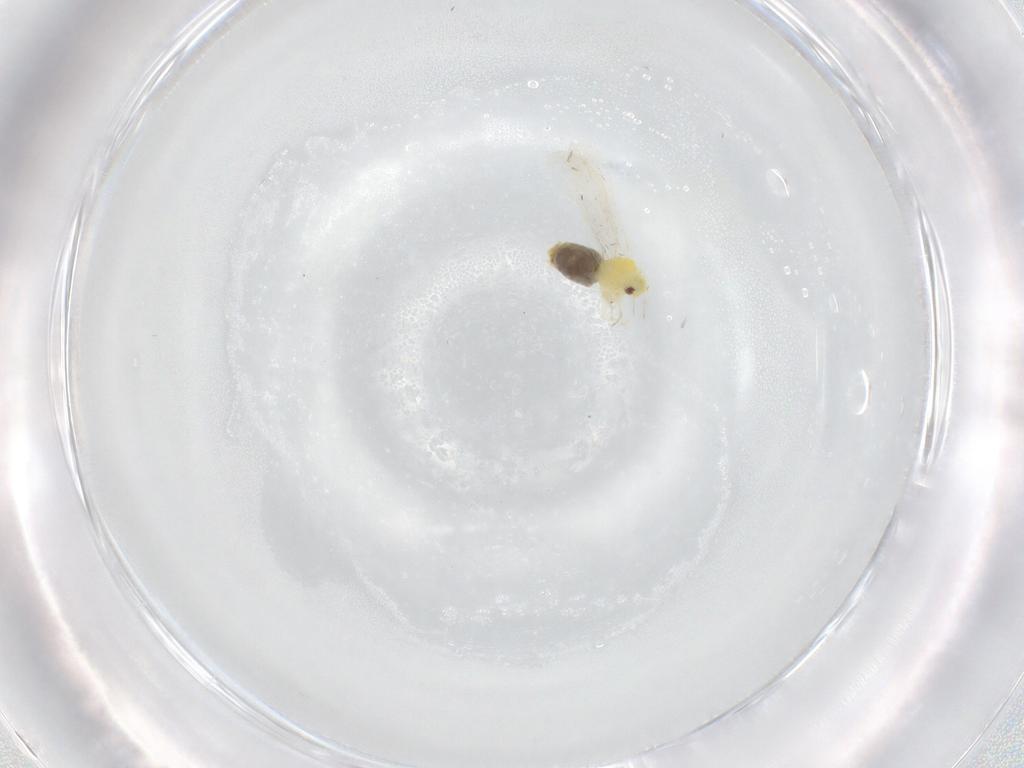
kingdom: Animalia
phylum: Arthropoda
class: Insecta
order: Hemiptera
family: Aleyrodidae
